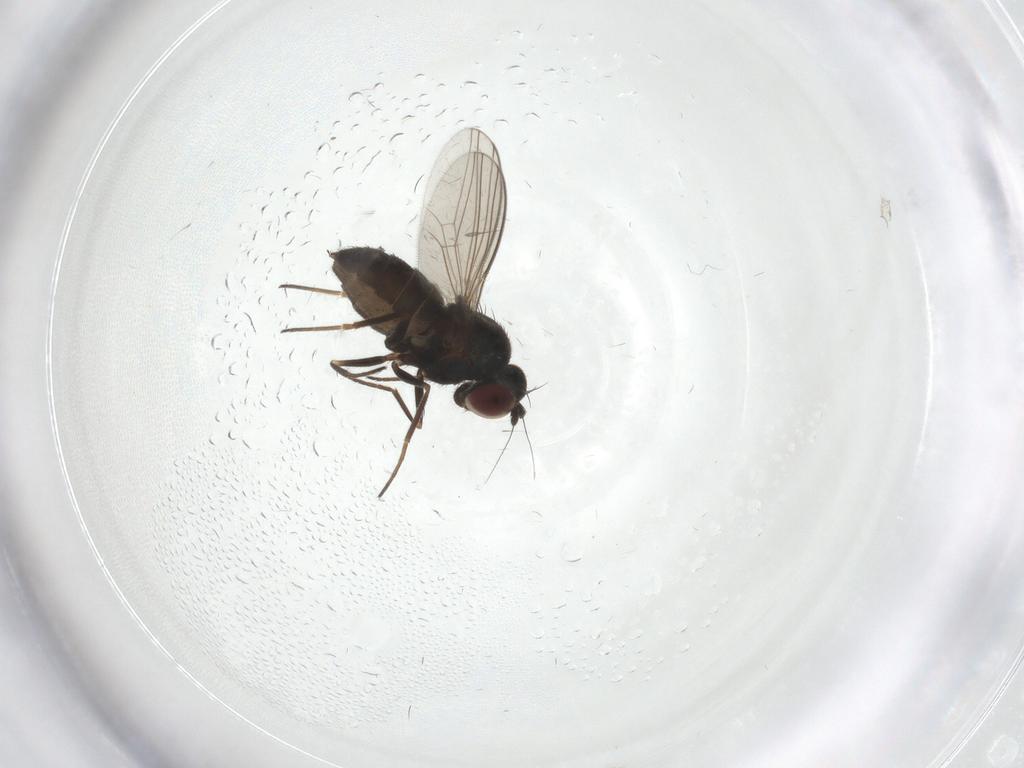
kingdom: Animalia
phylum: Arthropoda
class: Insecta
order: Diptera
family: Dolichopodidae
